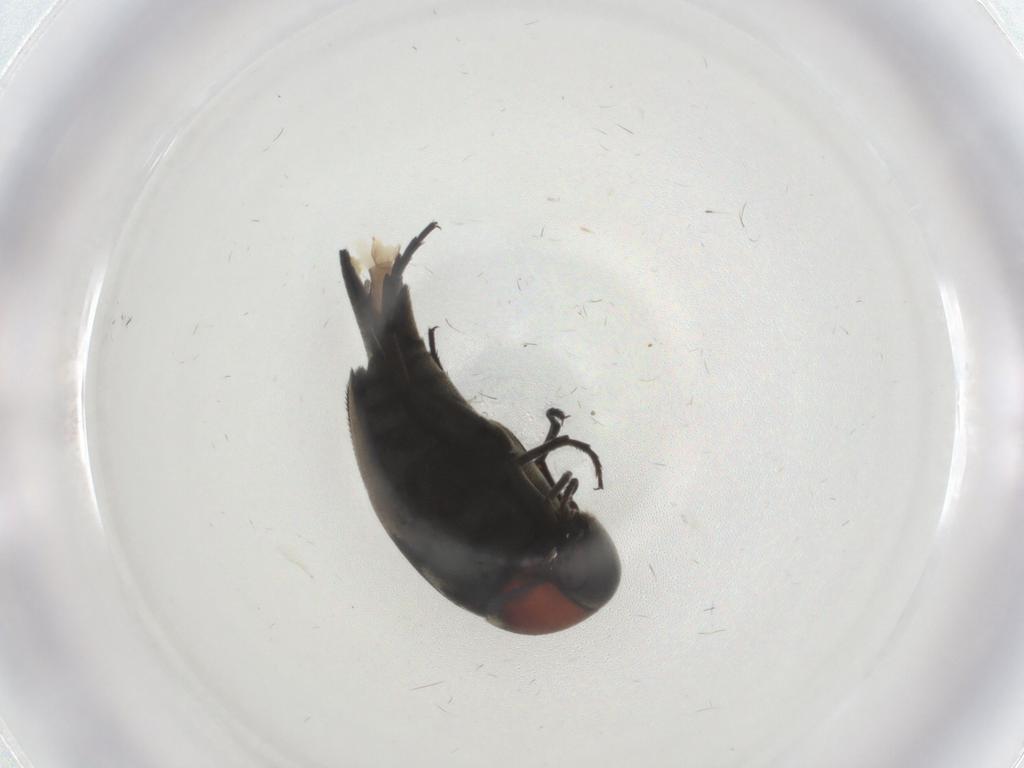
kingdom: Animalia
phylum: Arthropoda
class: Insecta
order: Coleoptera
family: Mordellidae
